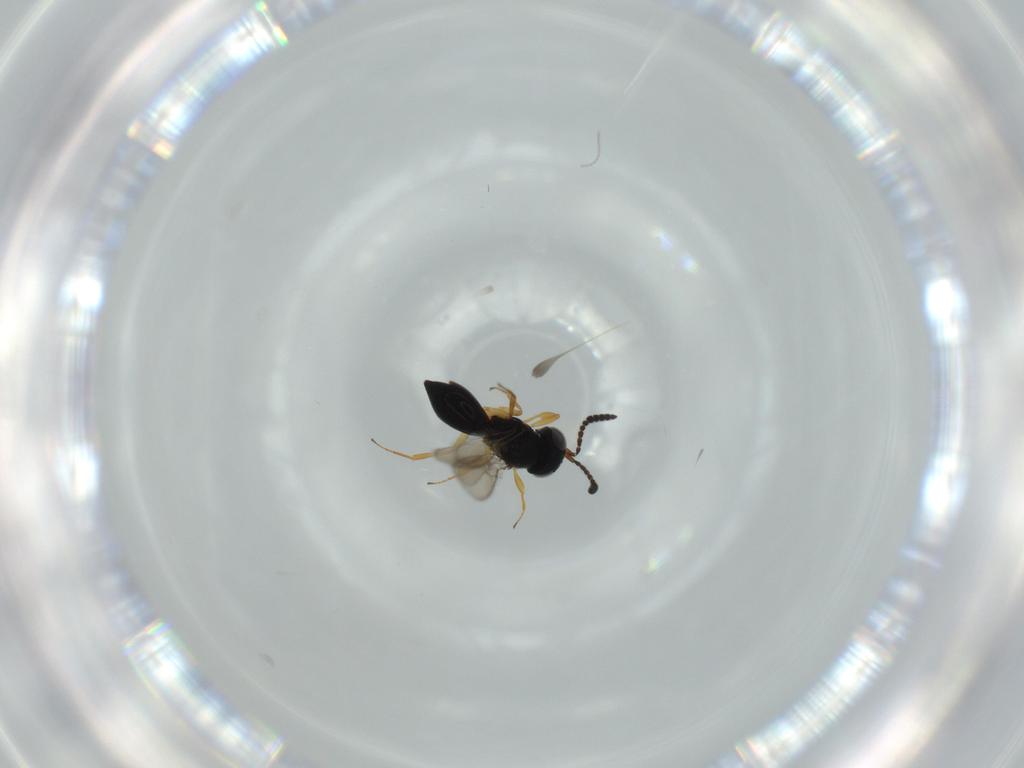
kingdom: Animalia
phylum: Arthropoda
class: Insecta
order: Hymenoptera
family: Scelionidae
